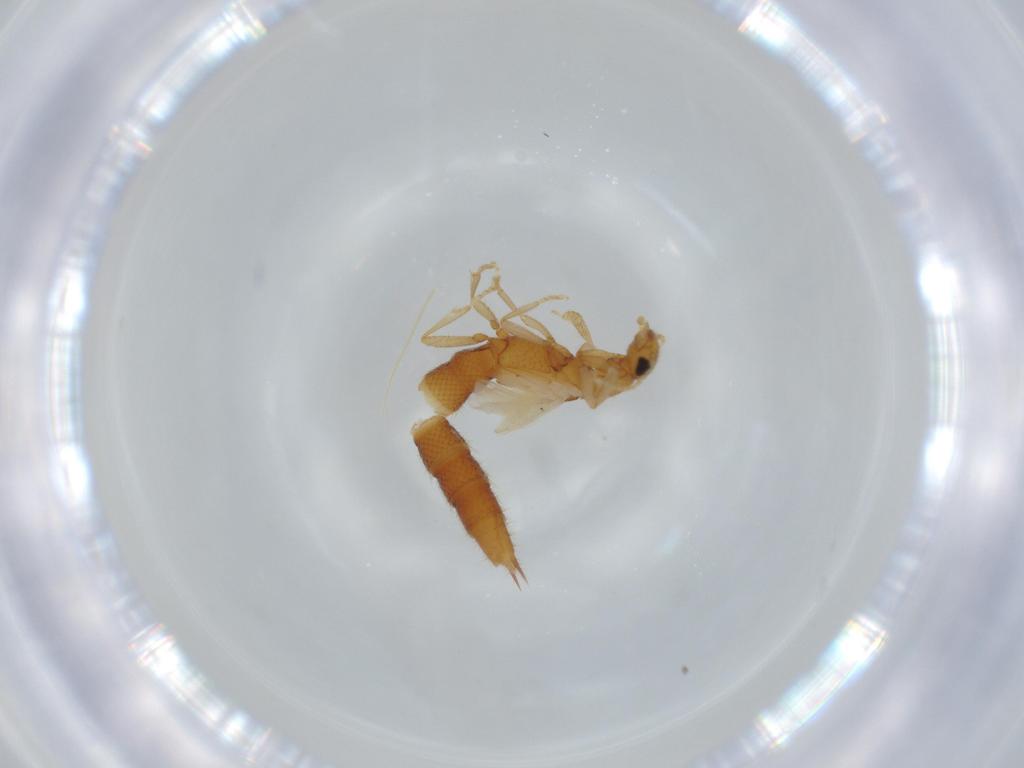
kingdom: Animalia
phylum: Arthropoda
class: Insecta
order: Coleoptera
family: Staphylinidae
